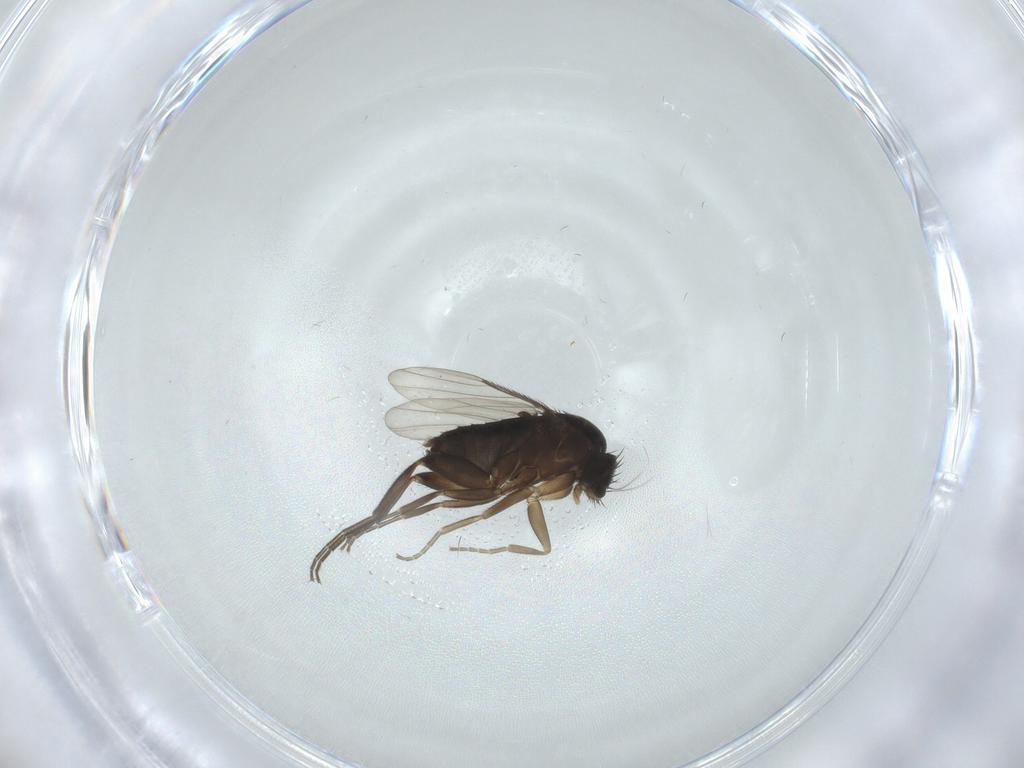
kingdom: Animalia
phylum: Arthropoda
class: Insecta
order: Diptera
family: Phoridae
